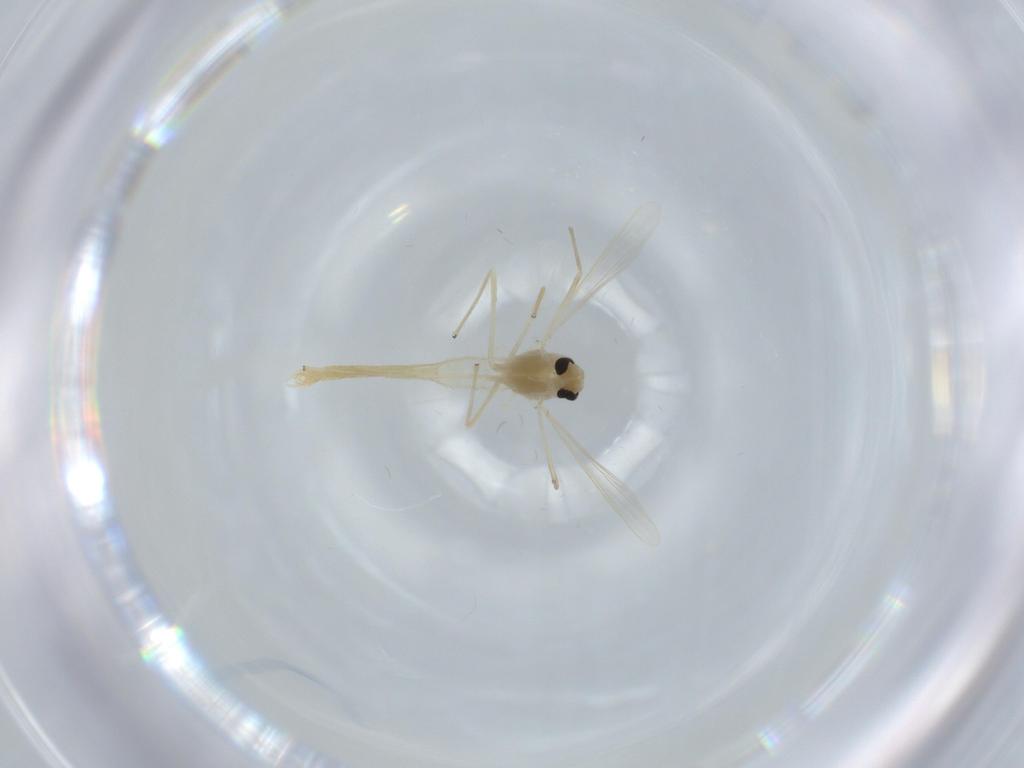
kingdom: Animalia
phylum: Arthropoda
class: Insecta
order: Diptera
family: Chironomidae
